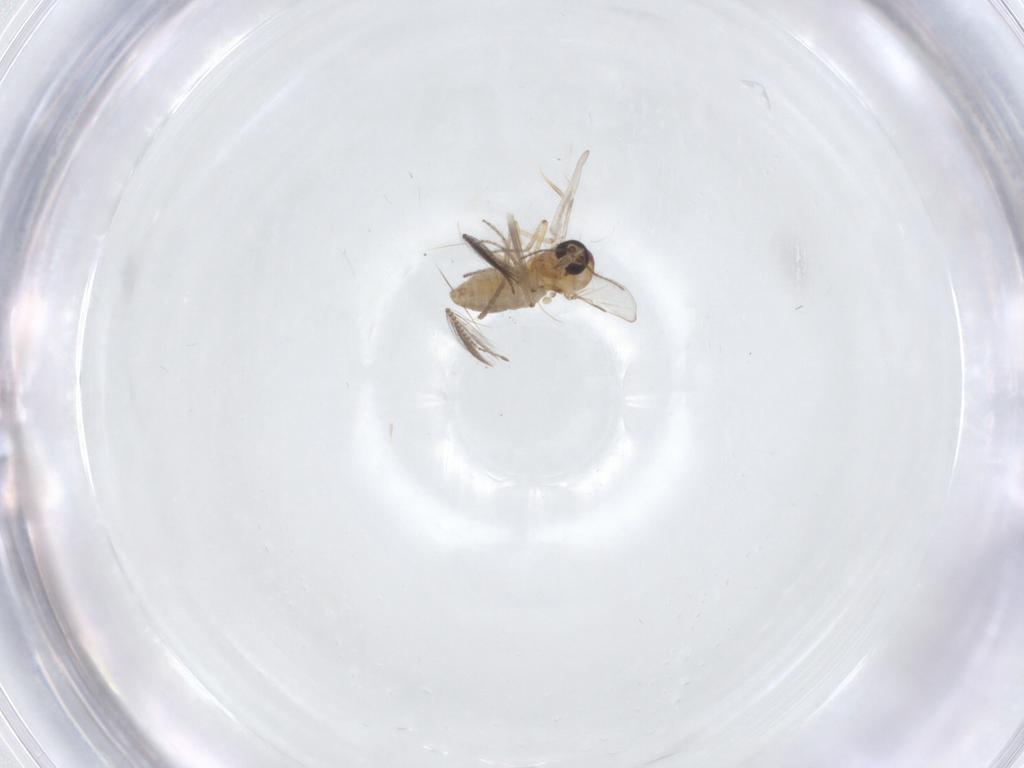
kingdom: Animalia
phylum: Arthropoda
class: Insecta
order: Diptera
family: Ceratopogonidae
